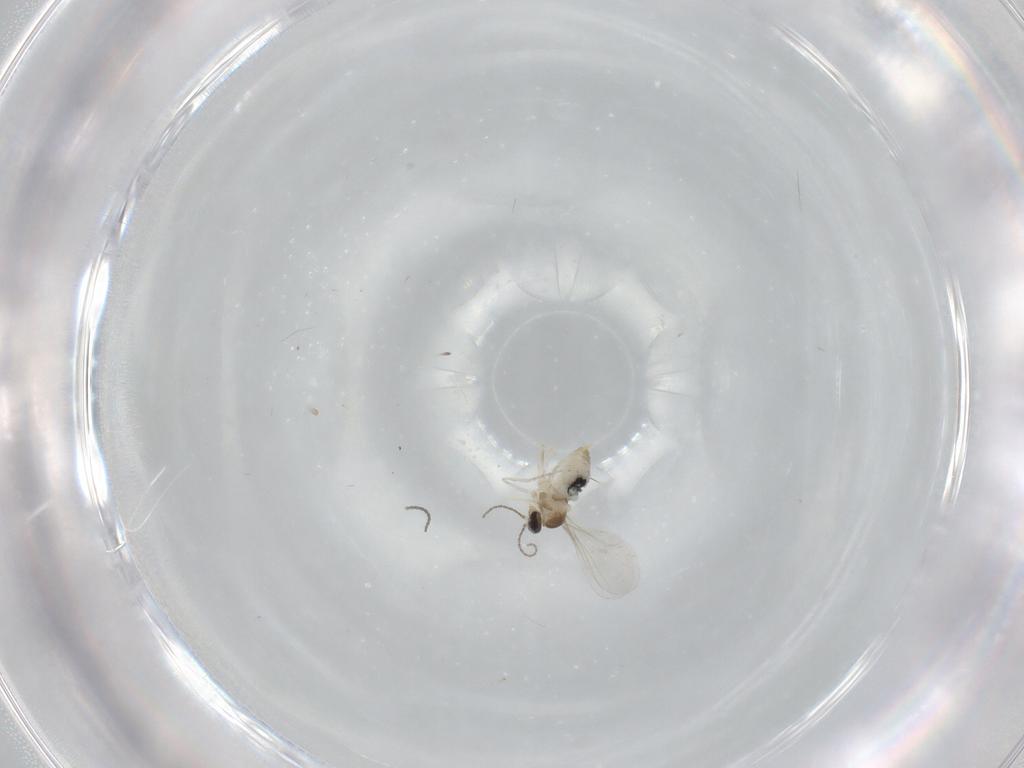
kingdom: Animalia
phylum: Arthropoda
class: Insecta
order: Diptera
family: Cecidomyiidae
